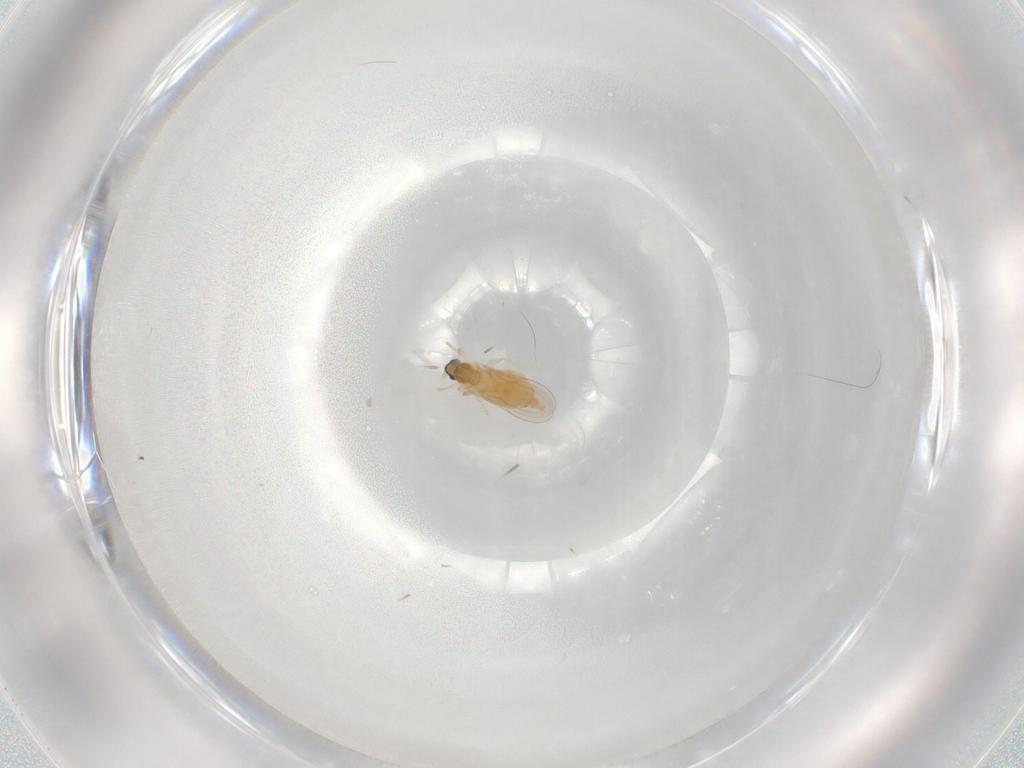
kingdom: Animalia
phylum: Arthropoda
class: Insecta
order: Diptera
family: Cecidomyiidae
